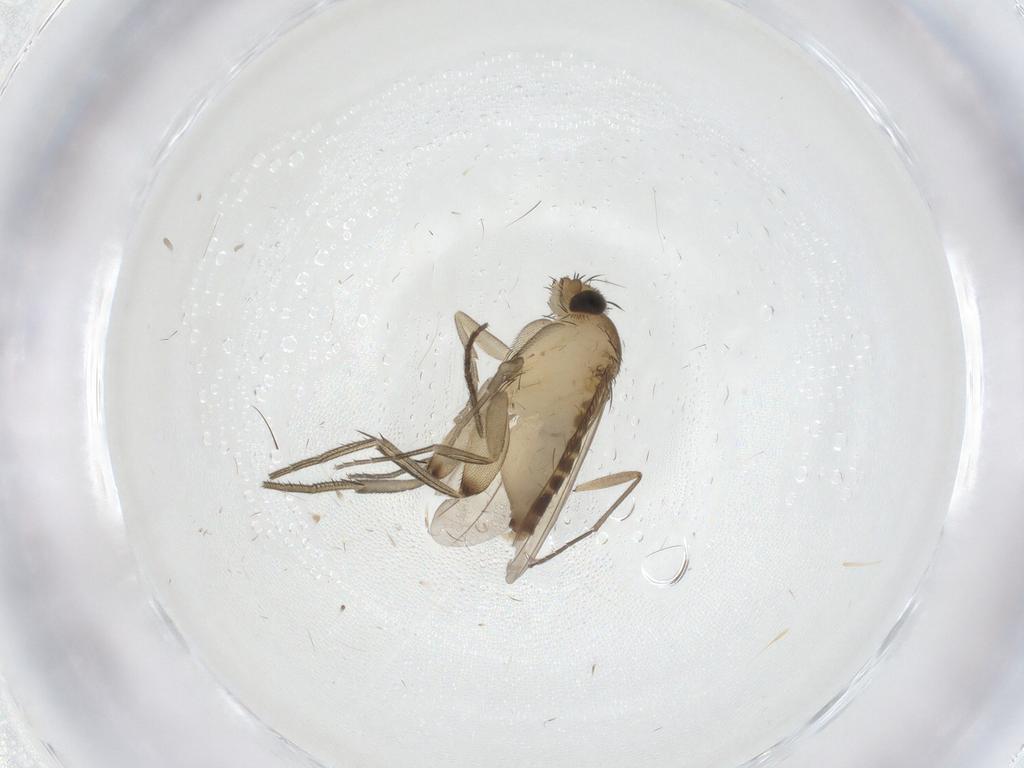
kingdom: Animalia
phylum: Arthropoda
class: Insecta
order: Diptera
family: Phoridae
